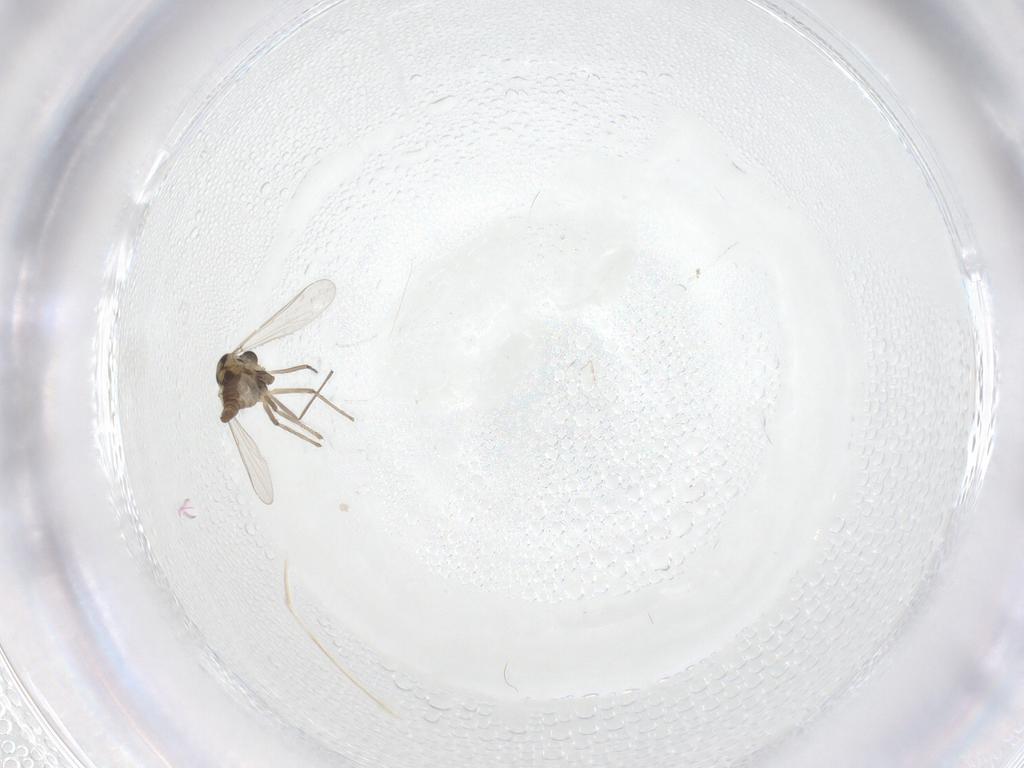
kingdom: Animalia
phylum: Arthropoda
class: Insecta
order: Diptera
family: Chironomidae
